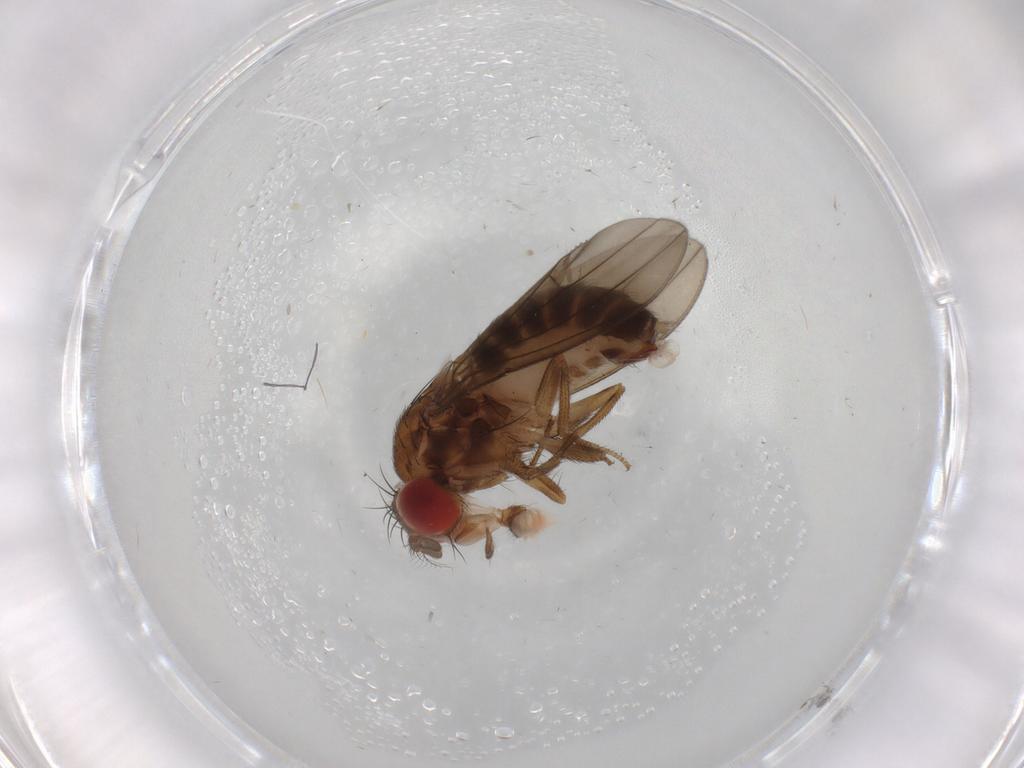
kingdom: Animalia
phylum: Arthropoda
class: Insecta
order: Diptera
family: Drosophilidae
